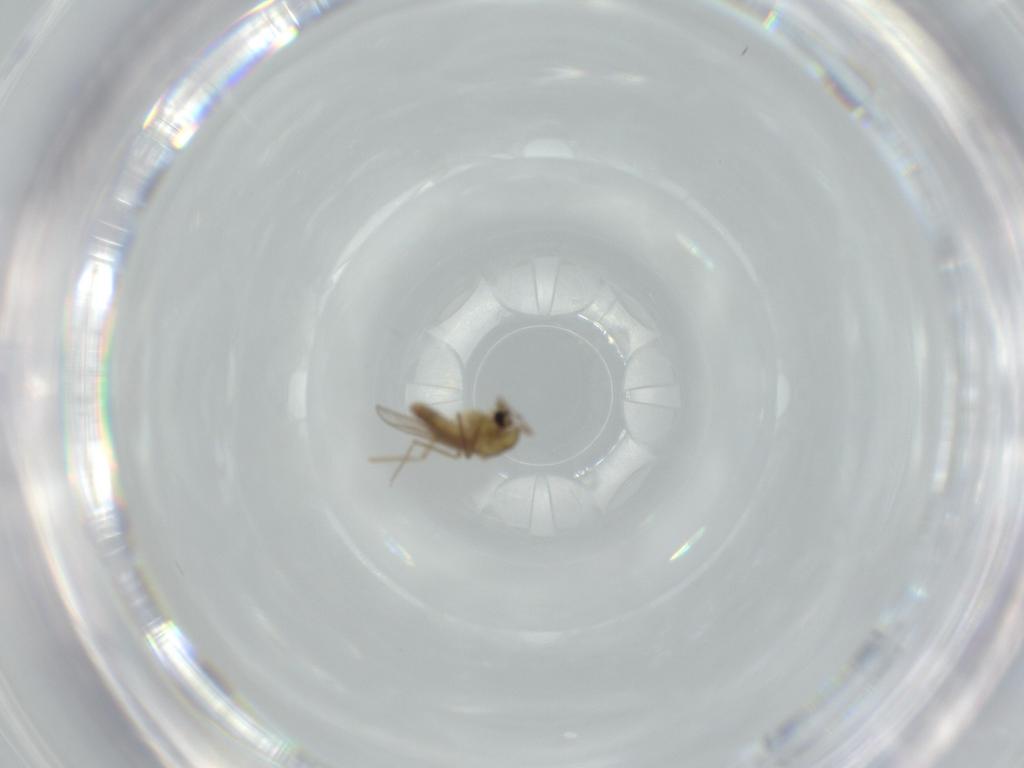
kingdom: Animalia
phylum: Arthropoda
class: Insecta
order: Diptera
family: Chironomidae
